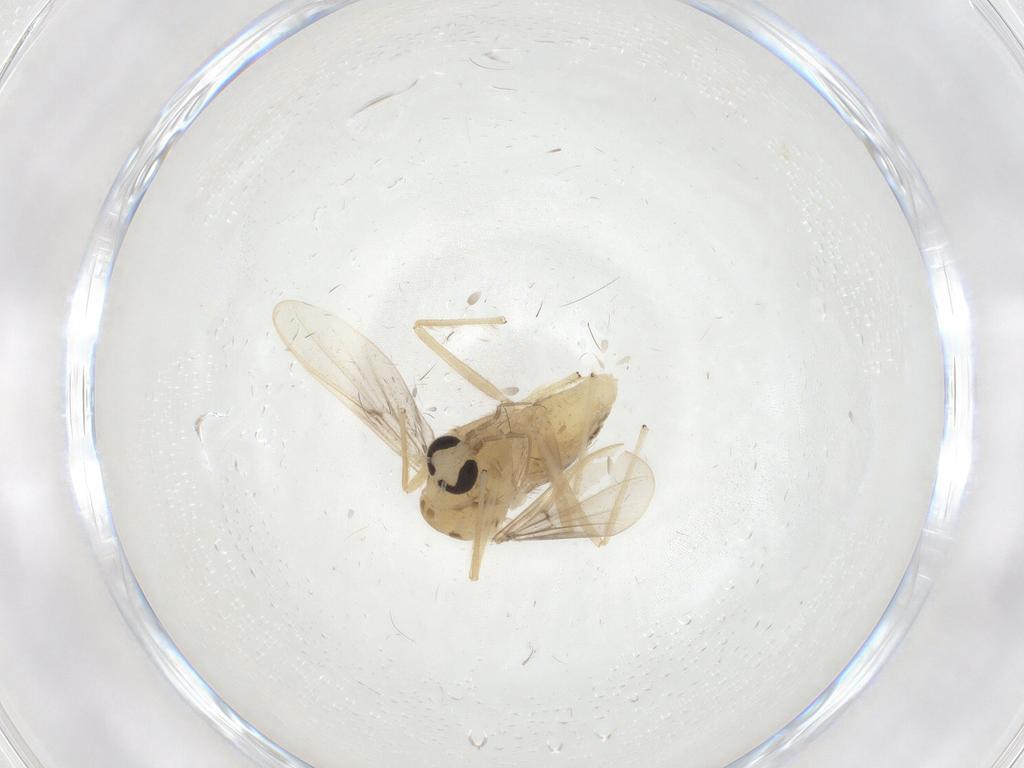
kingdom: Animalia
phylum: Arthropoda
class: Insecta
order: Diptera
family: Chironomidae
